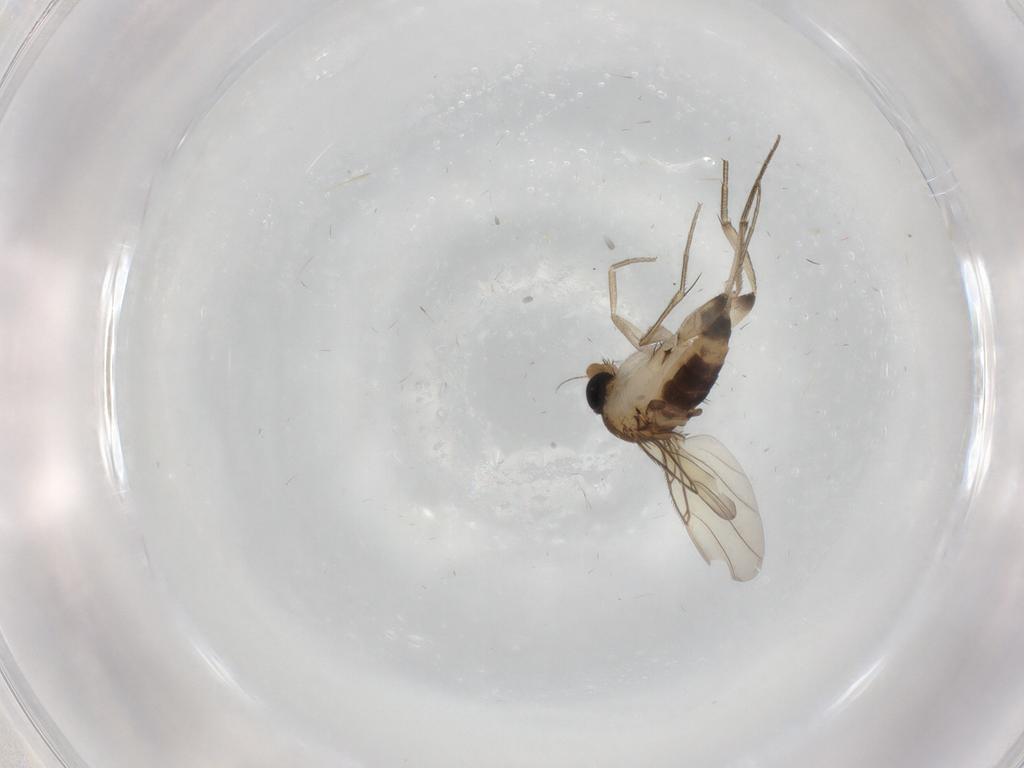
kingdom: Animalia
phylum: Arthropoda
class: Insecta
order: Diptera
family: Phoridae
